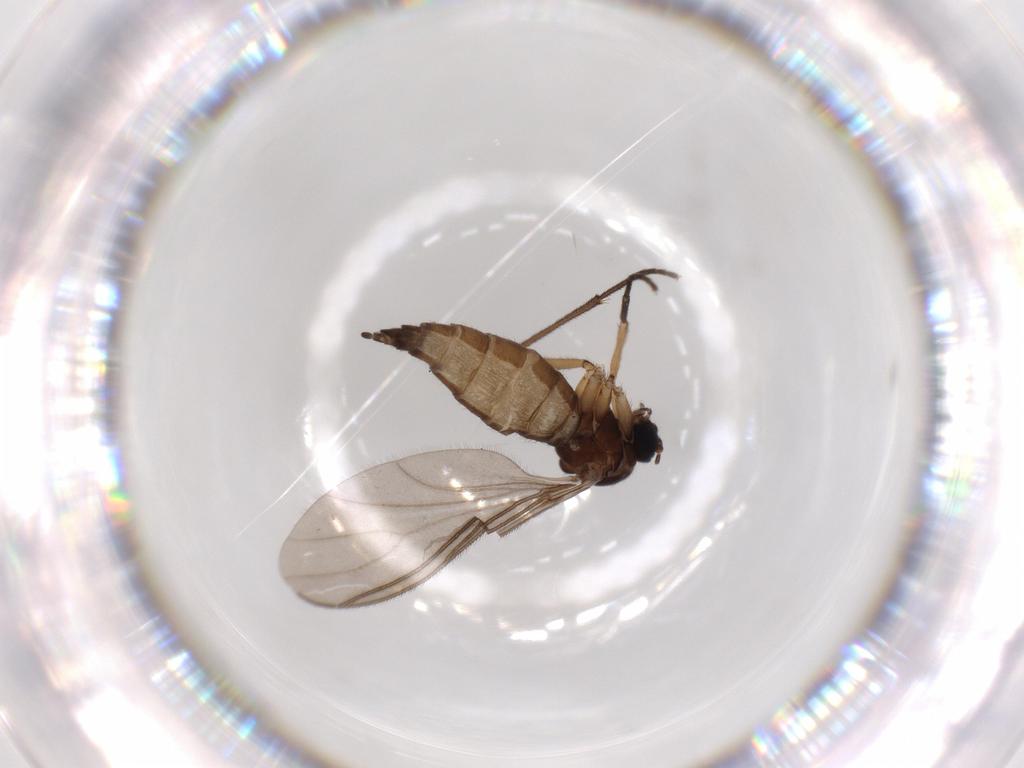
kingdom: Animalia
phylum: Arthropoda
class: Insecta
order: Diptera
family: Sciaridae
